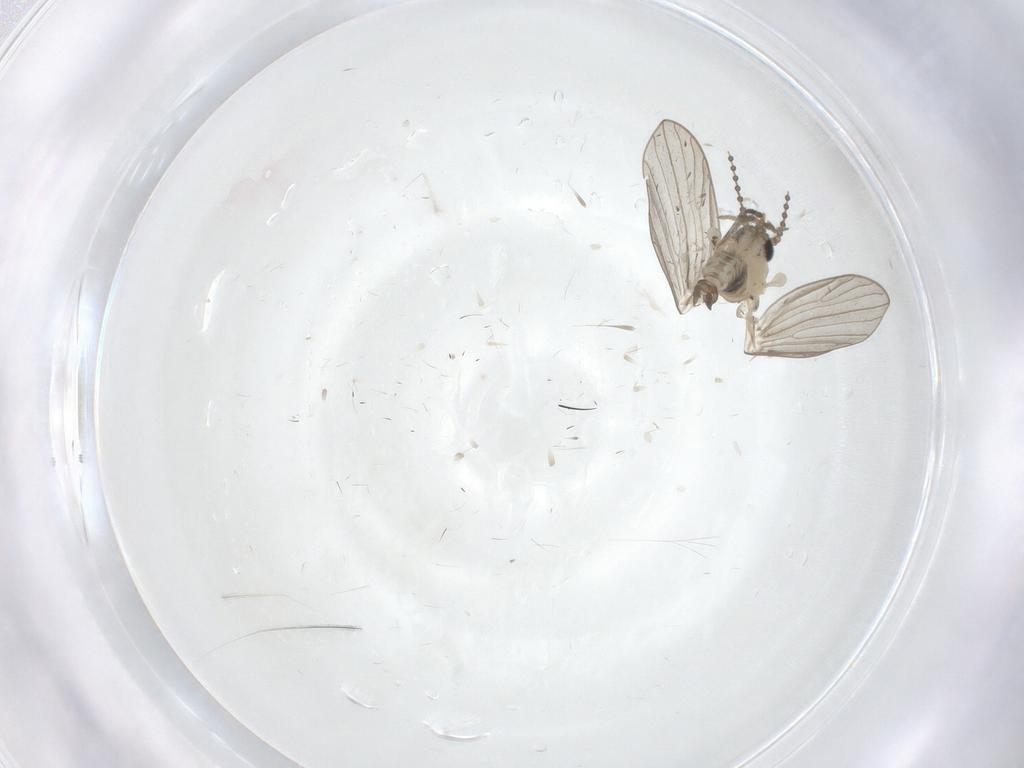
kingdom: Animalia
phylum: Arthropoda
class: Insecta
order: Diptera
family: Psychodidae
